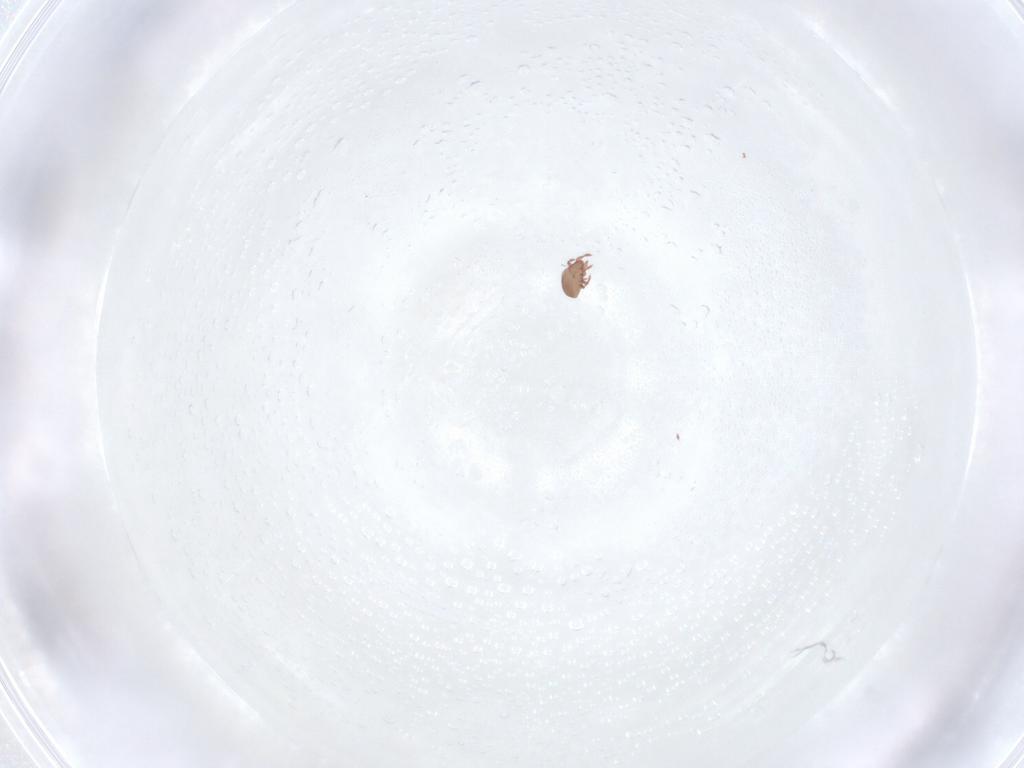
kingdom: Animalia
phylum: Arthropoda
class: Arachnida
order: Sarcoptiformes
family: Eremaeidae
